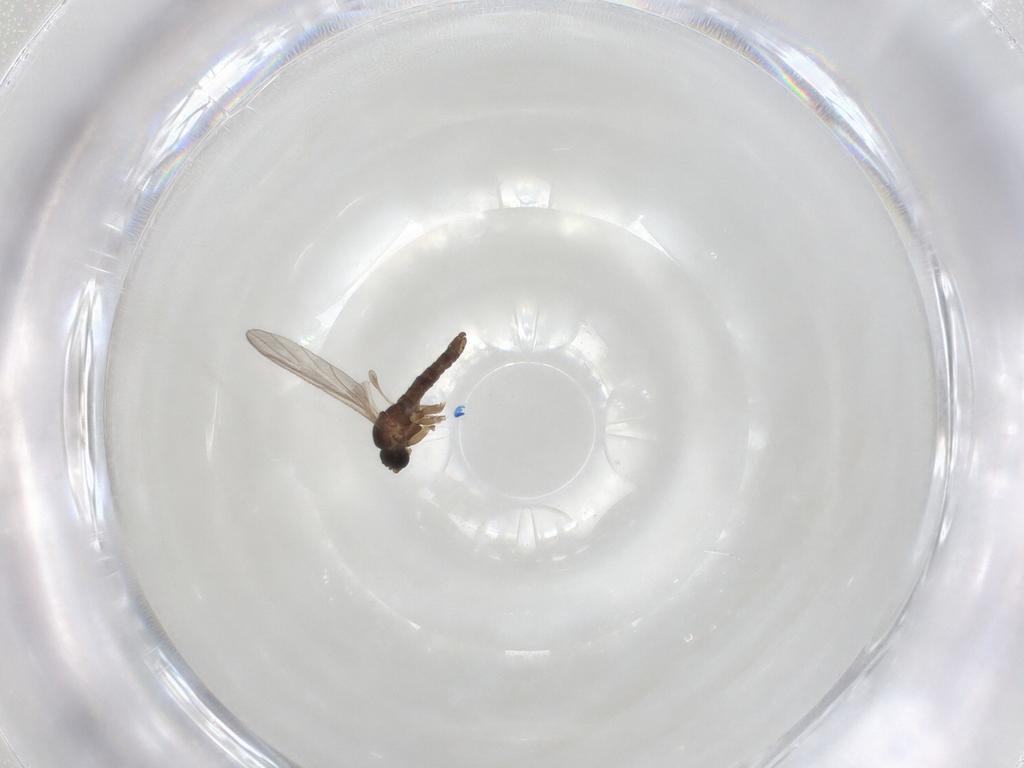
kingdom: Animalia
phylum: Arthropoda
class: Insecta
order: Diptera
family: Sciaridae
